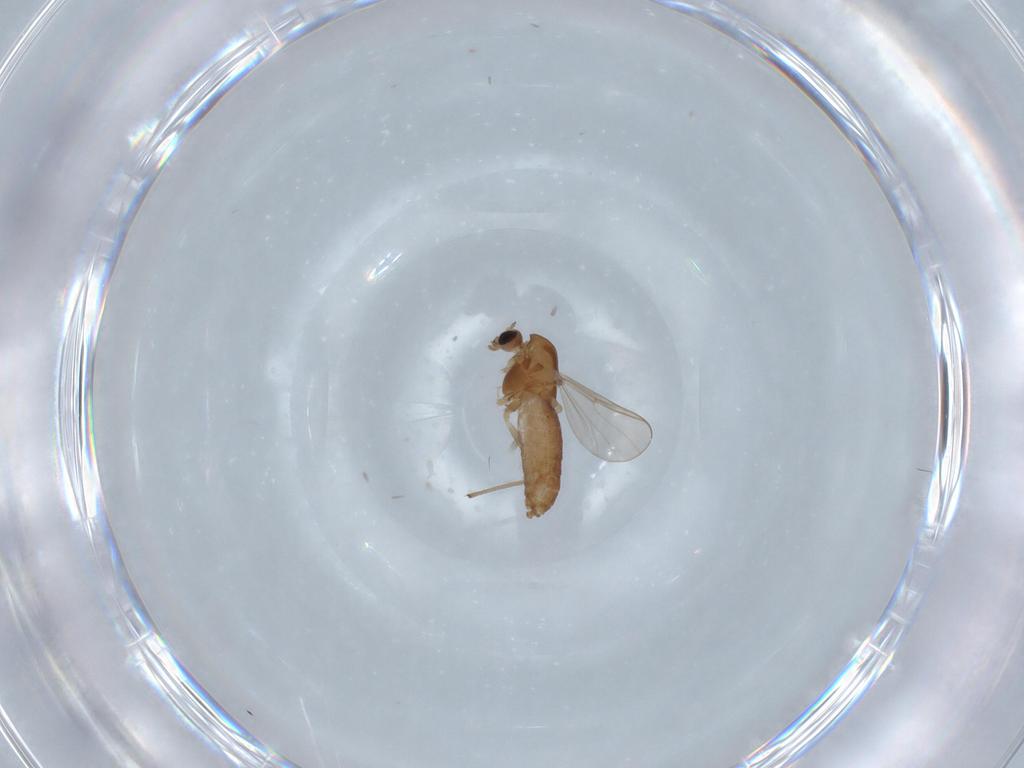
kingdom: Animalia
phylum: Arthropoda
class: Insecta
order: Diptera
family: Chironomidae
